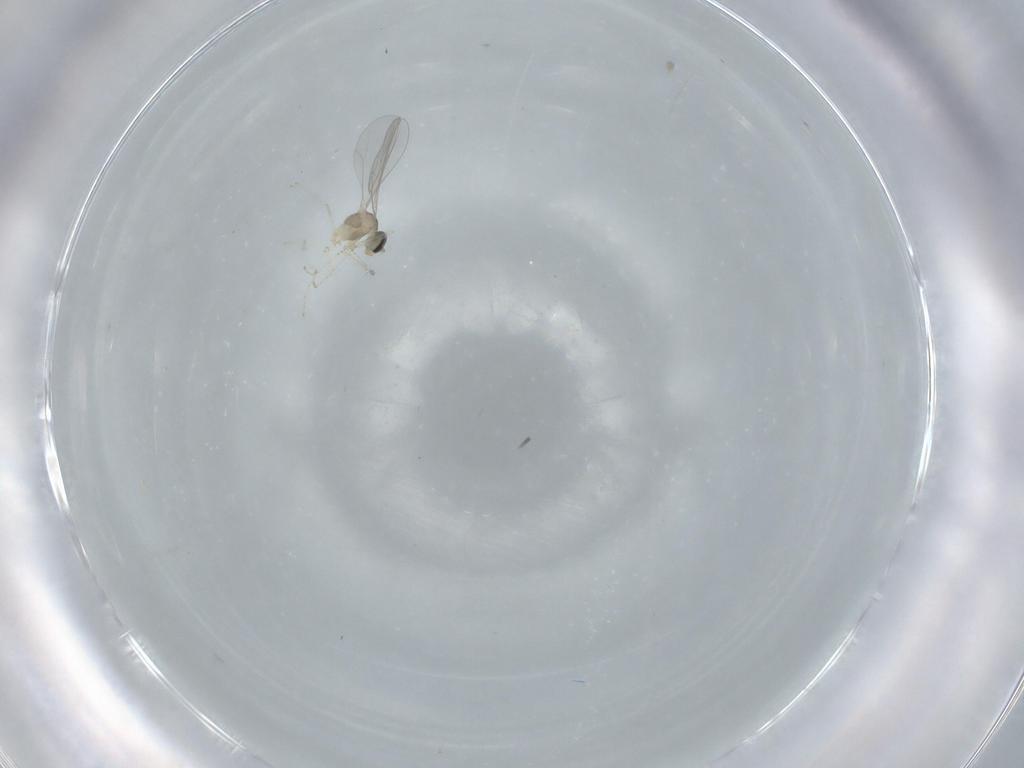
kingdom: Animalia
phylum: Arthropoda
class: Insecta
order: Diptera
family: Cecidomyiidae
